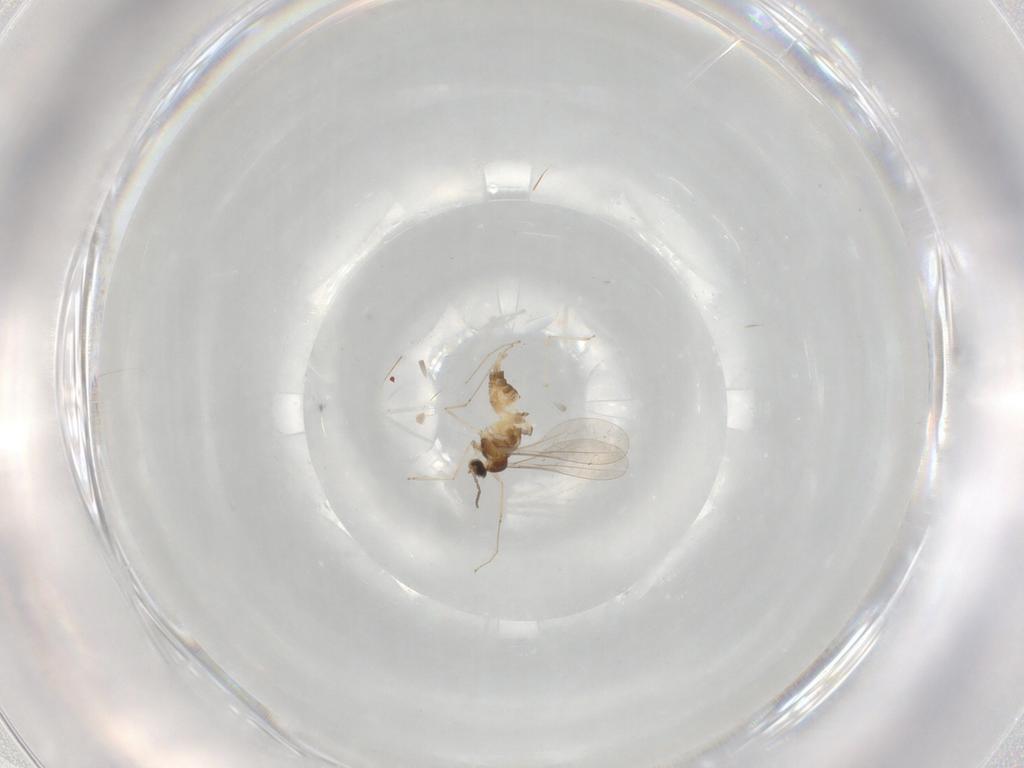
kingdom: Animalia
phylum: Arthropoda
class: Insecta
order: Diptera
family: Cecidomyiidae
